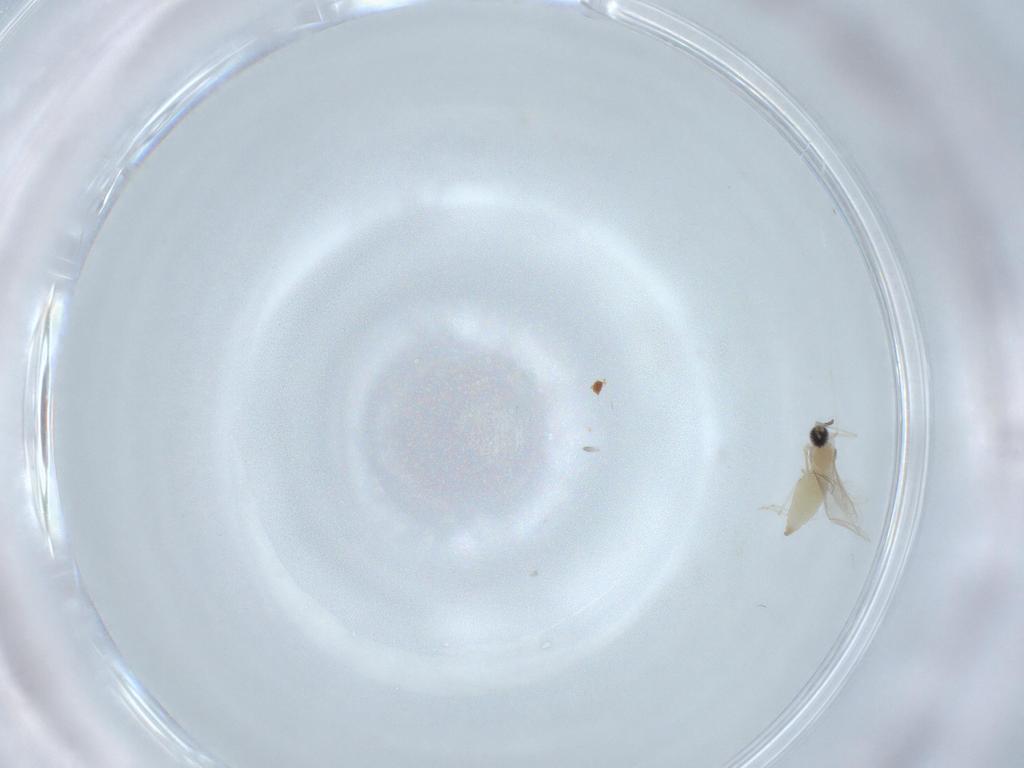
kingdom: Animalia
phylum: Arthropoda
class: Insecta
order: Diptera
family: Cecidomyiidae
